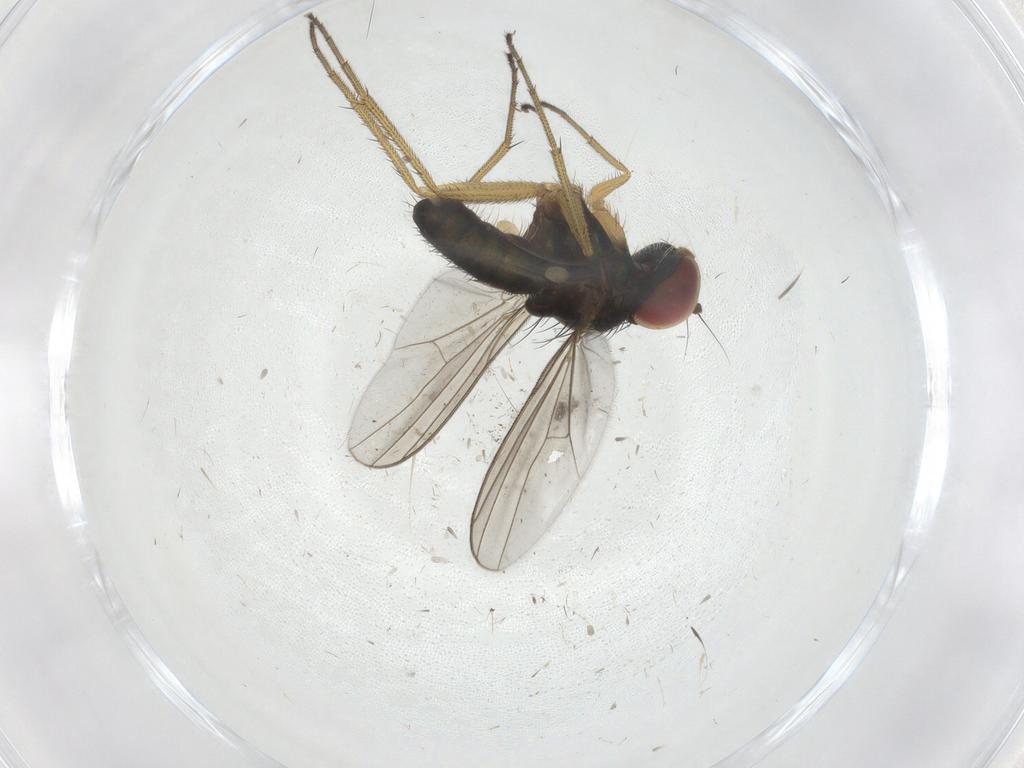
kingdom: Animalia
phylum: Arthropoda
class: Insecta
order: Diptera
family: Dolichopodidae
